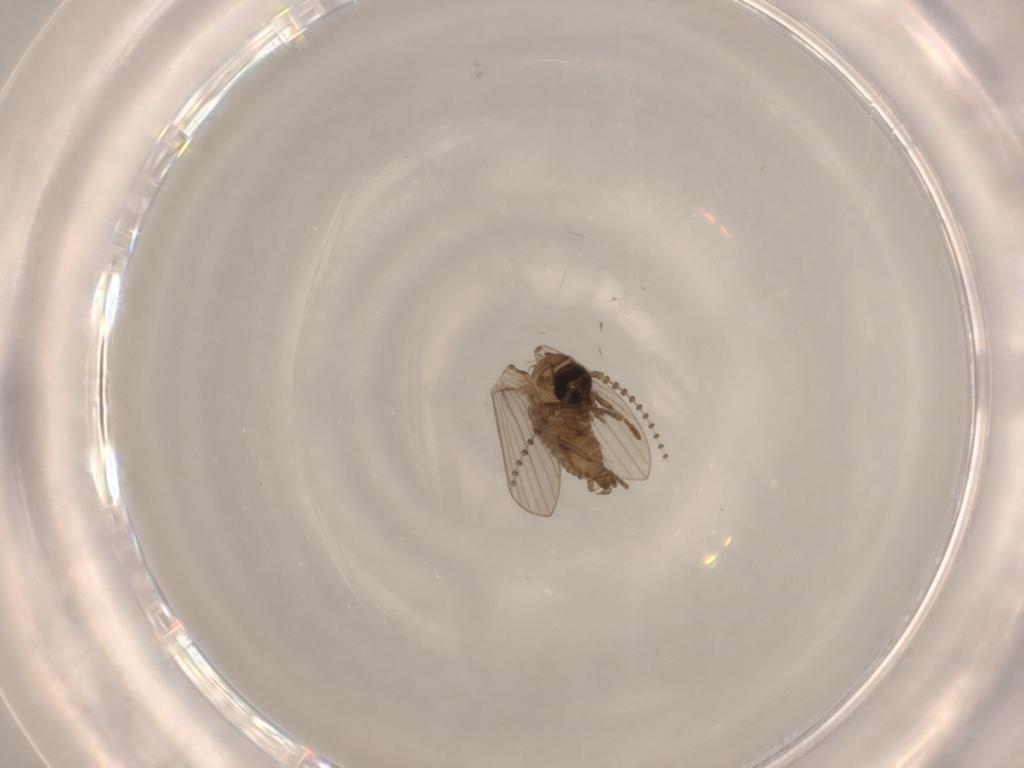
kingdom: Animalia
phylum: Arthropoda
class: Insecta
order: Diptera
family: Psychodidae
